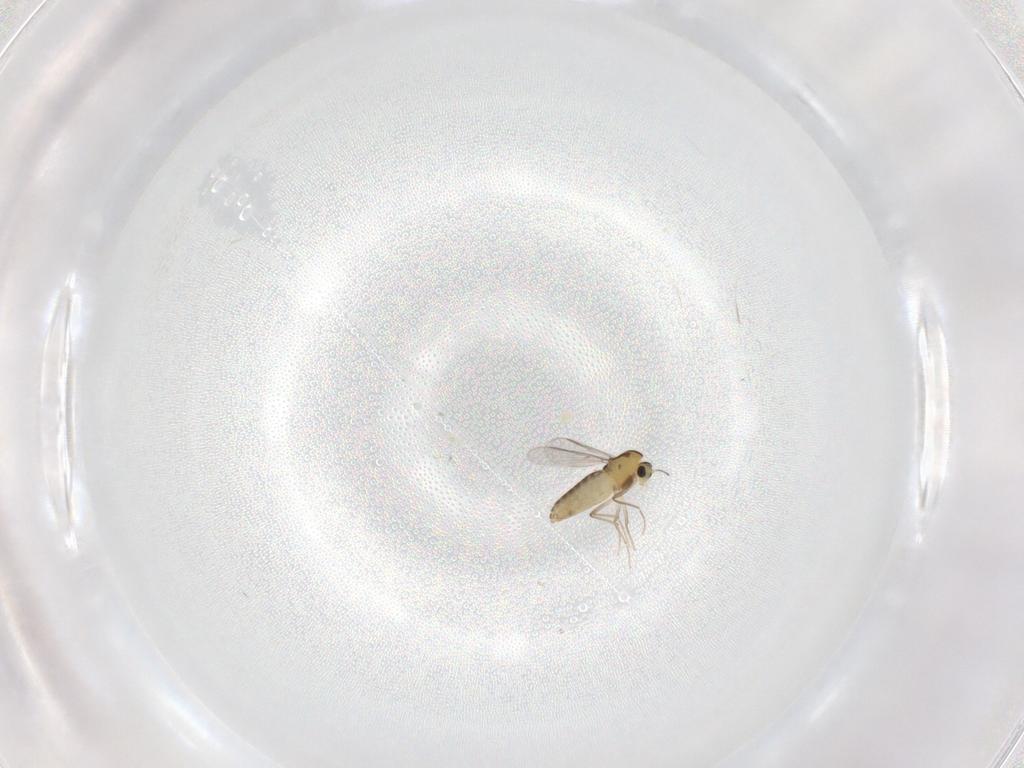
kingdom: Animalia
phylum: Arthropoda
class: Insecta
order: Diptera
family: Chironomidae
